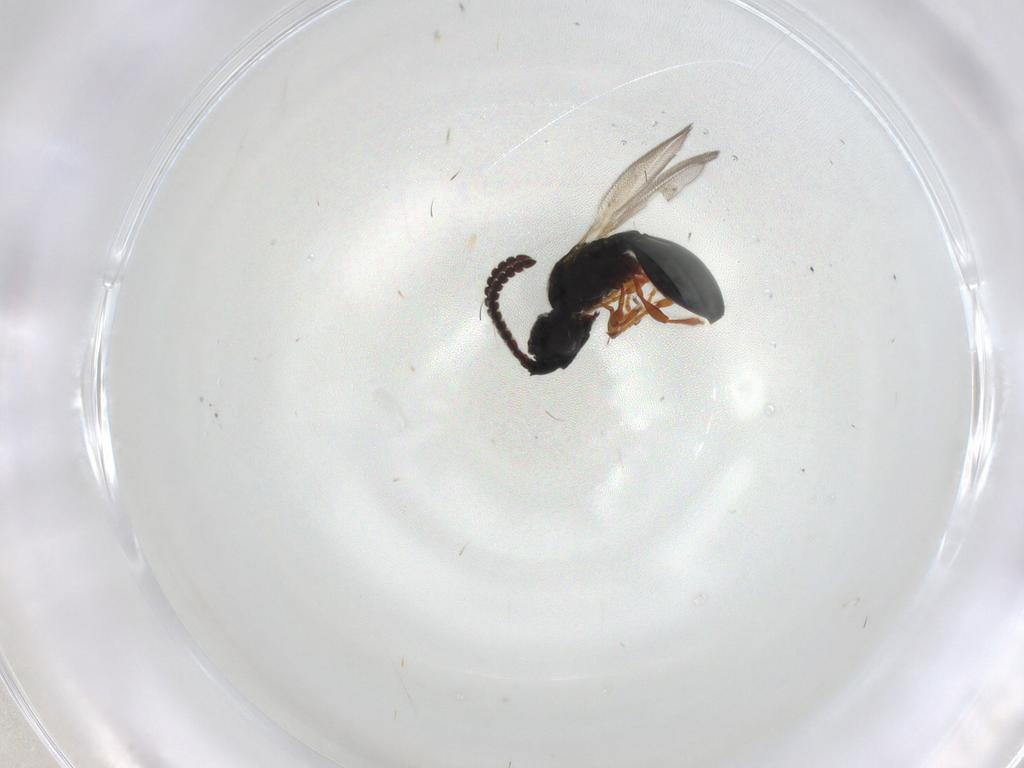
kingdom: Animalia
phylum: Arthropoda
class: Insecta
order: Hymenoptera
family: Diapriidae
